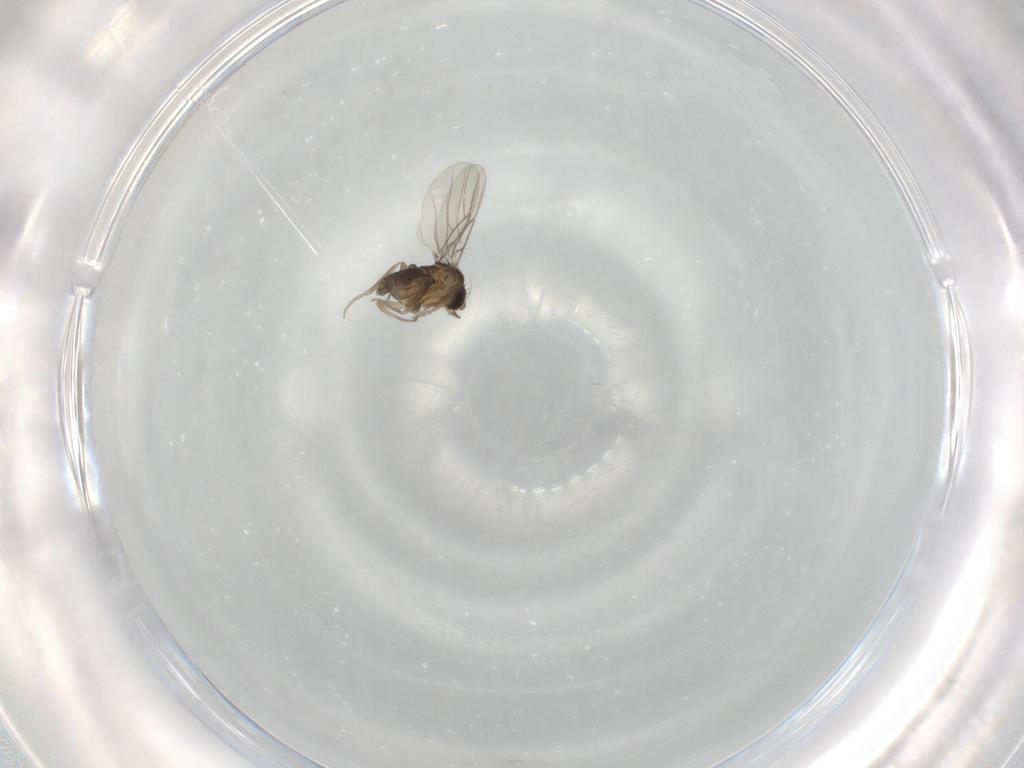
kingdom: Animalia
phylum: Arthropoda
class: Insecta
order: Diptera
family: Phoridae
